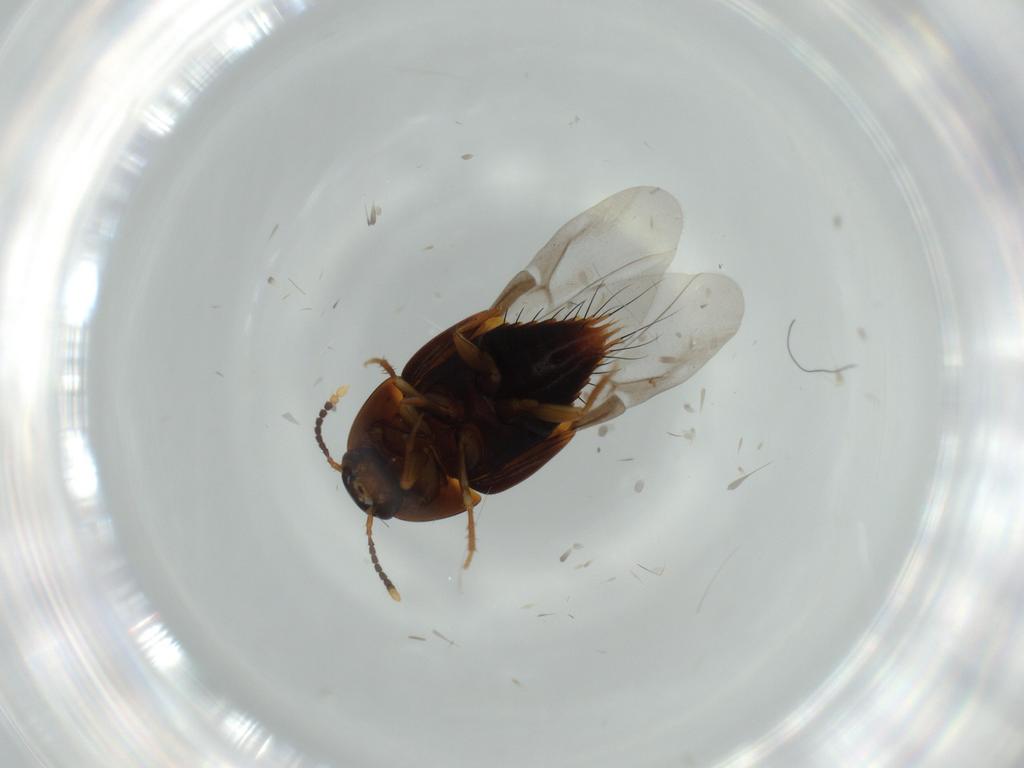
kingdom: Animalia
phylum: Arthropoda
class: Insecta
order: Coleoptera
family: Staphylinidae
